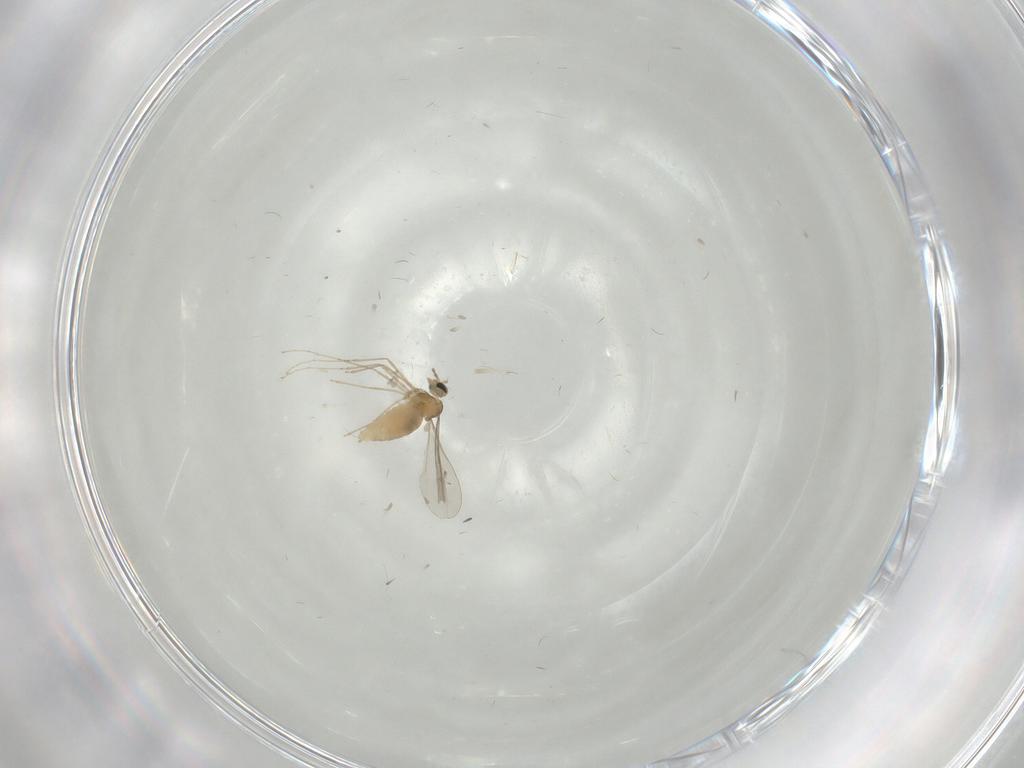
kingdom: Animalia
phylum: Arthropoda
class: Insecta
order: Diptera
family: Cecidomyiidae
